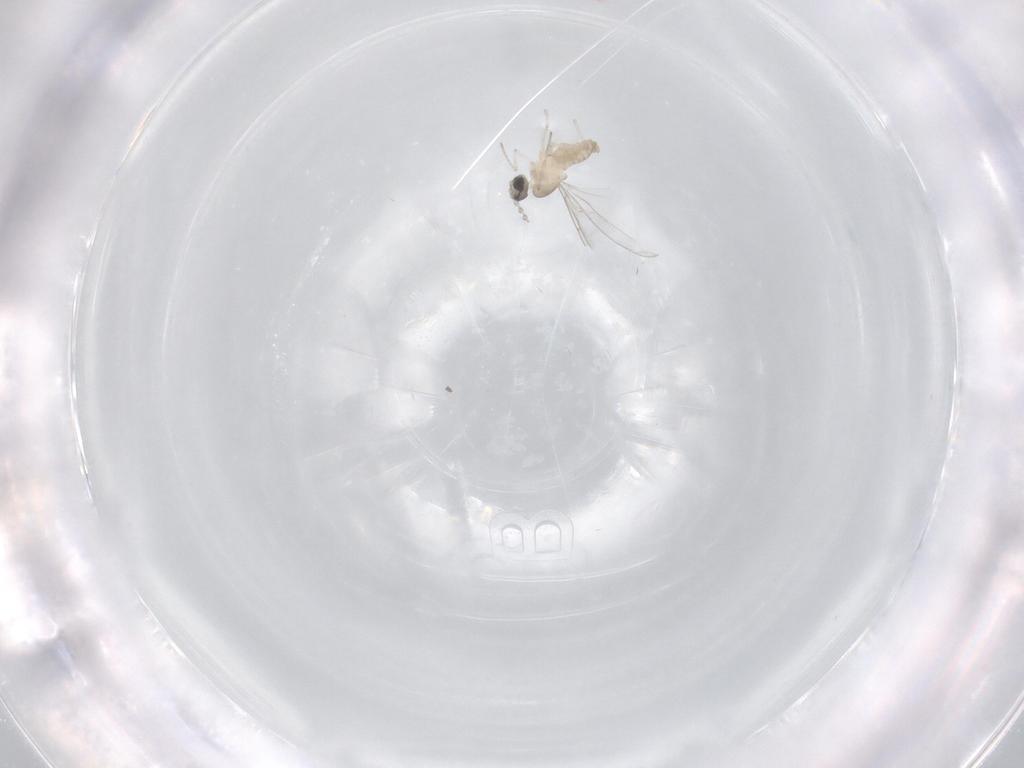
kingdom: Animalia
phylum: Arthropoda
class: Insecta
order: Diptera
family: Cecidomyiidae
